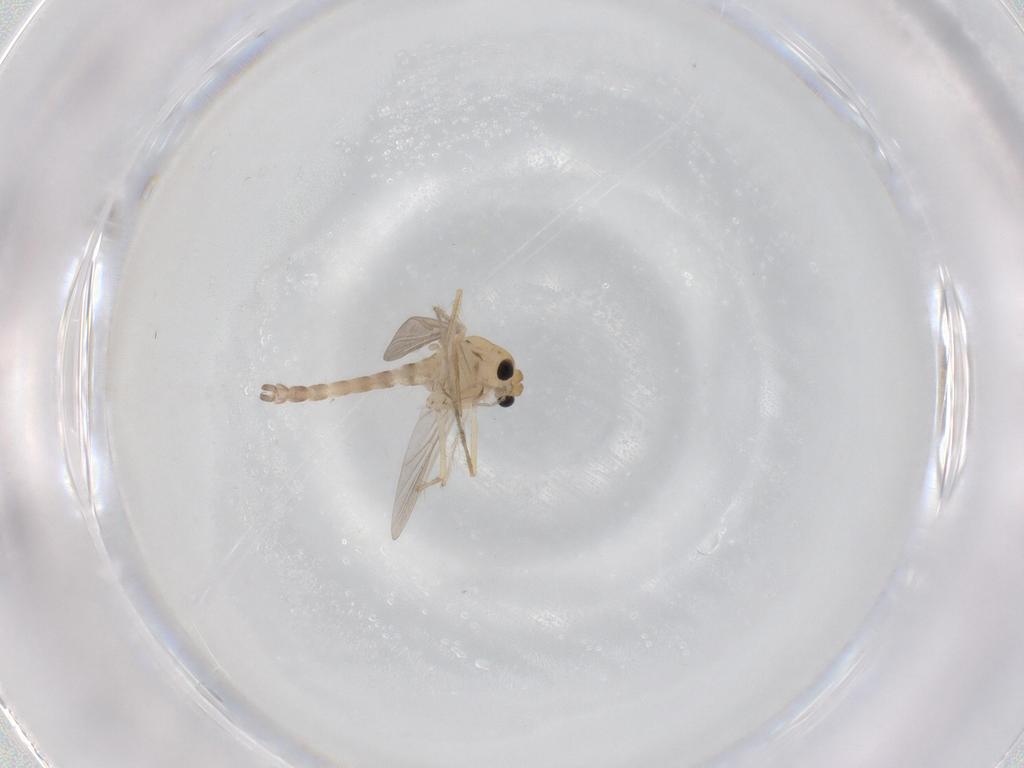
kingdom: Animalia
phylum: Arthropoda
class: Insecta
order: Diptera
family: Chironomidae
